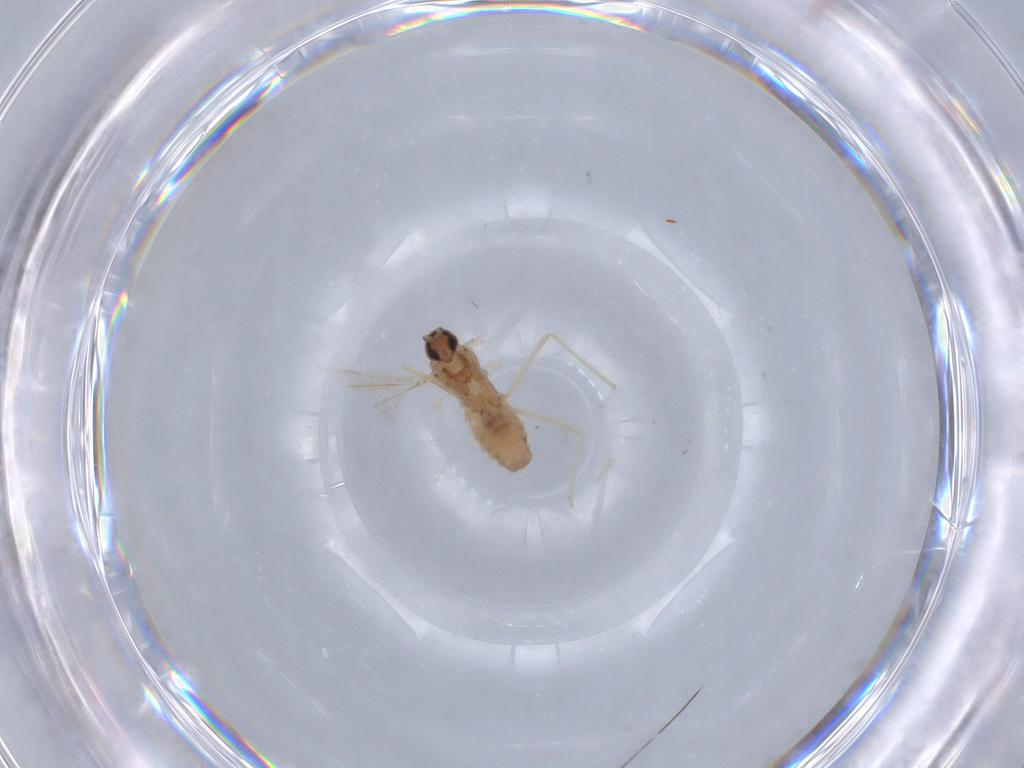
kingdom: Animalia
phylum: Arthropoda
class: Insecta
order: Diptera
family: Cecidomyiidae
